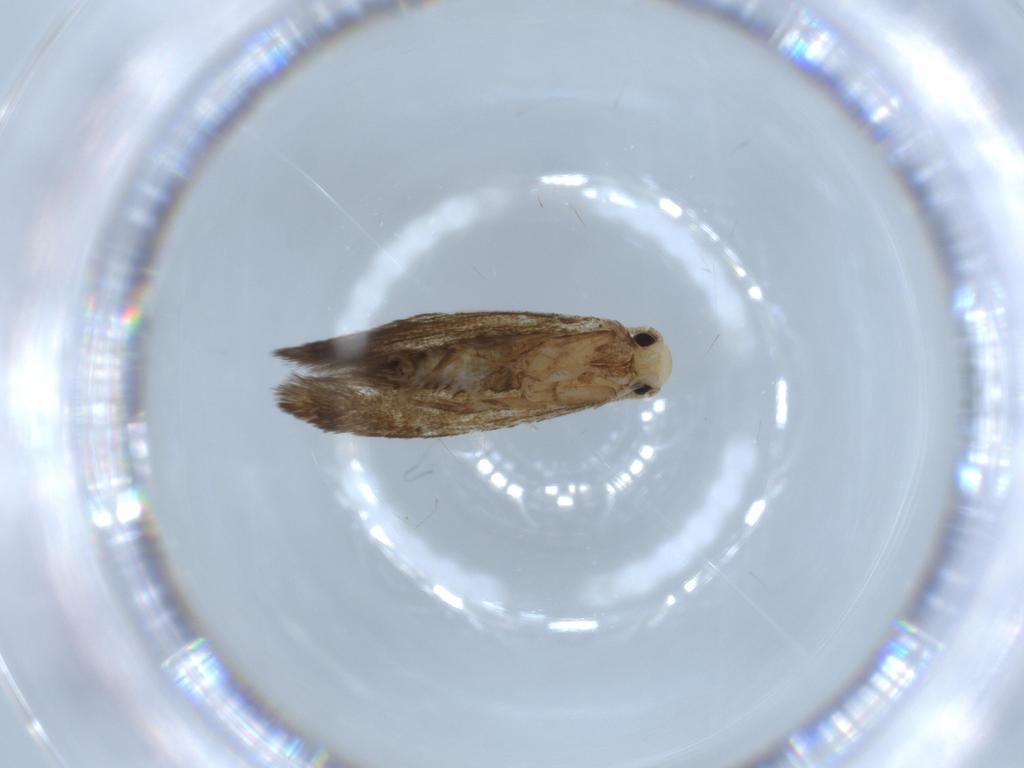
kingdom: Animalia
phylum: Arthropoda
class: Insecta
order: Lepidoptera
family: Tineidae
